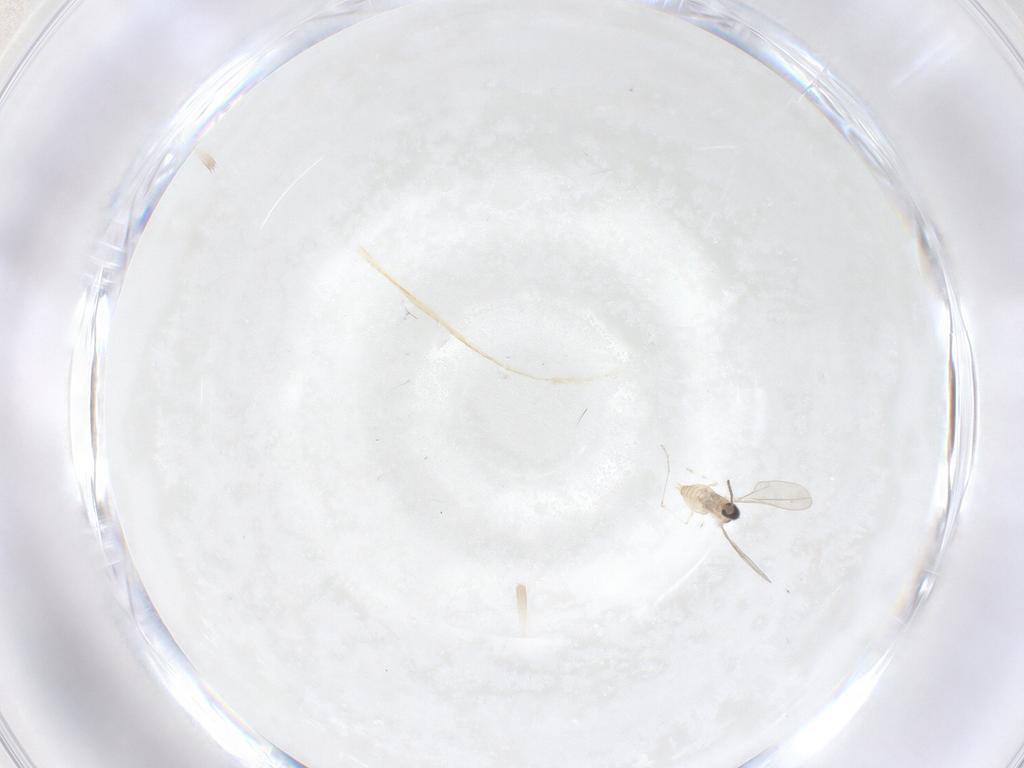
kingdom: Animalia
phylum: Arthropoda
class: Insecta
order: Diptera
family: Cecidomyiidae
